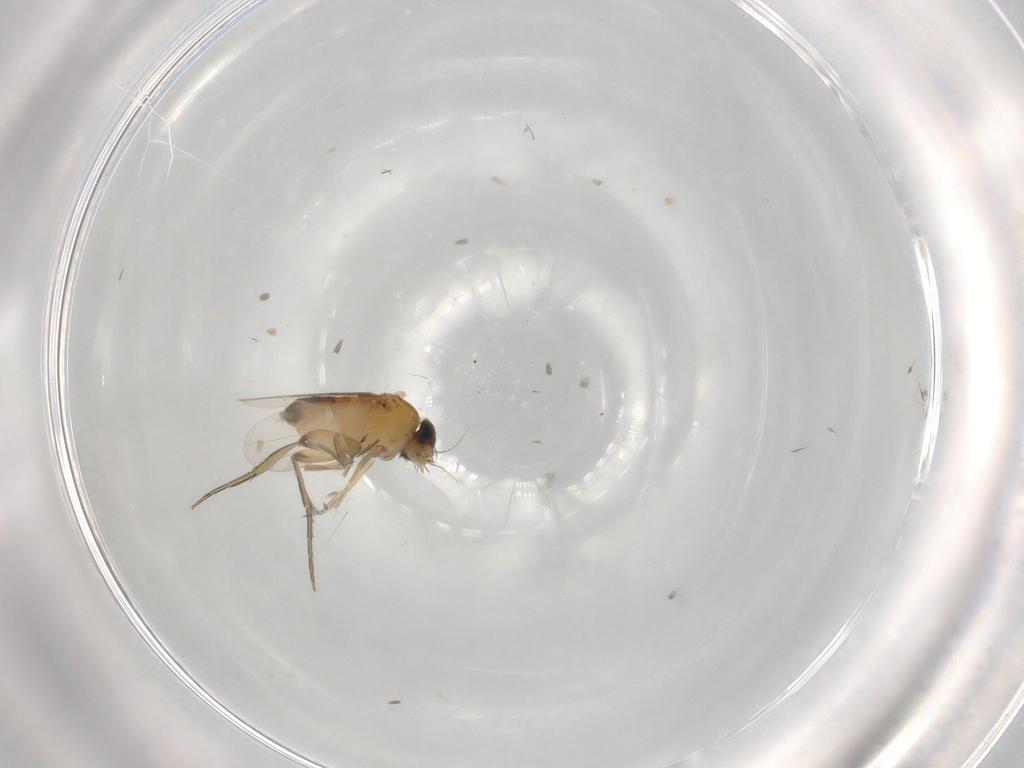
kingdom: Animalia
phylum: Arthropoda
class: Insecta
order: Diptera
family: Phoridae
